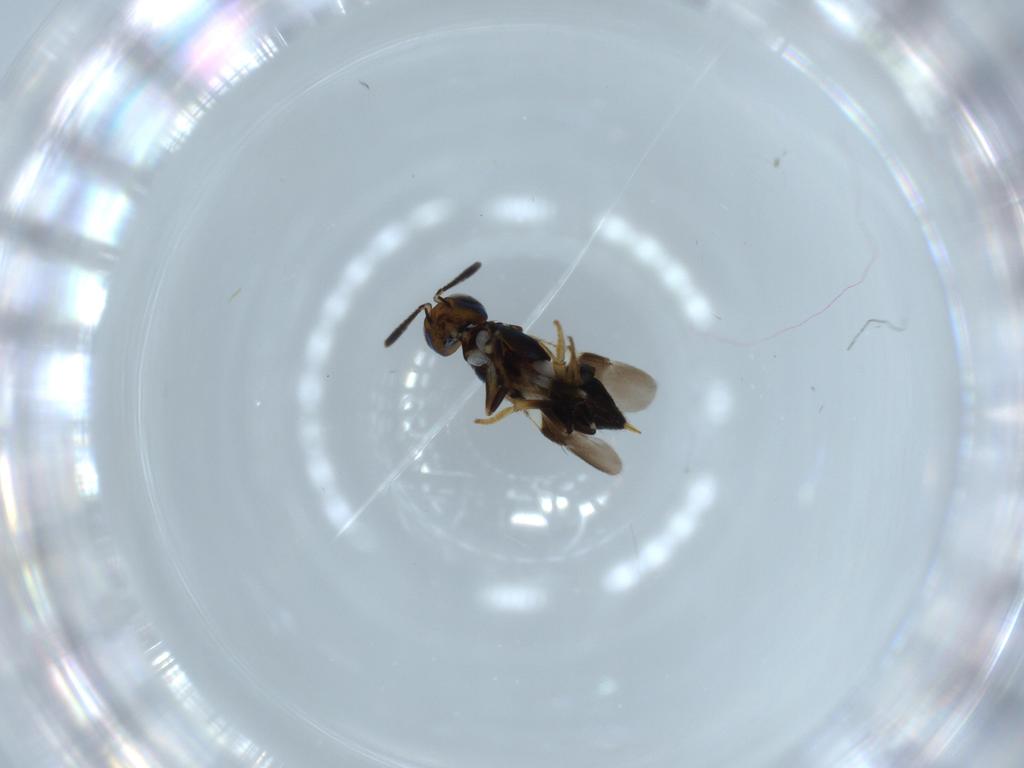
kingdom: Animalia
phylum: Arthropoda
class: Insecta
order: Hymenoptera
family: Scelionidae
